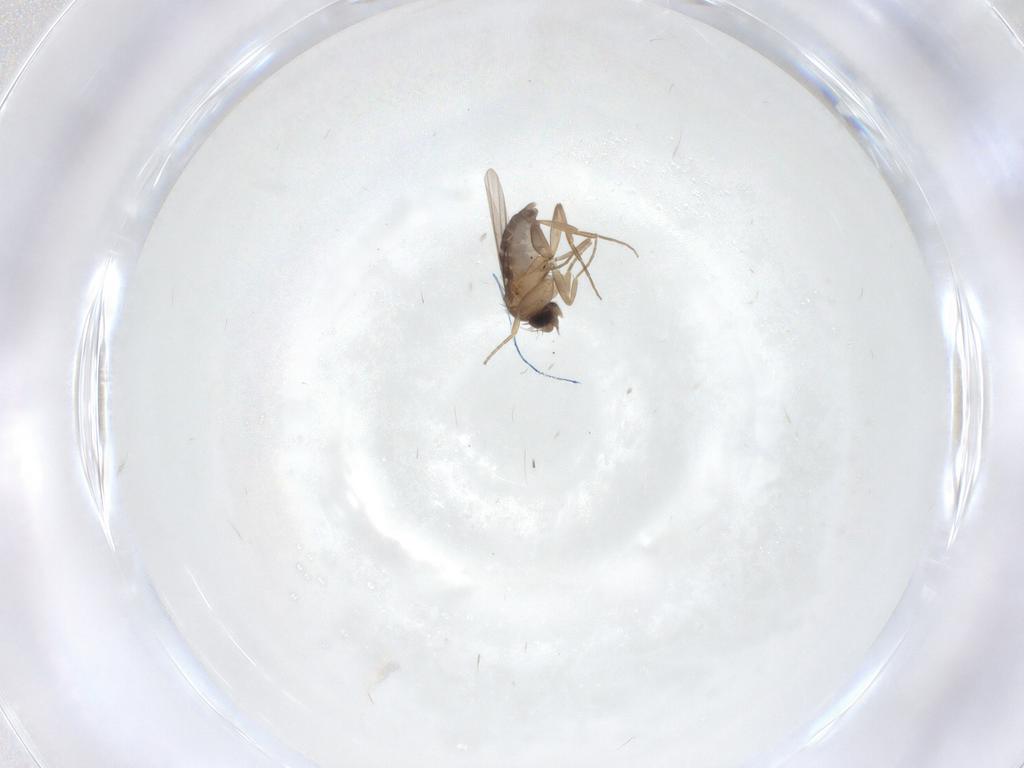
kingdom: Animalia
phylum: Arthropoda
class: Insecta
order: Diptera
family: Phoridae
